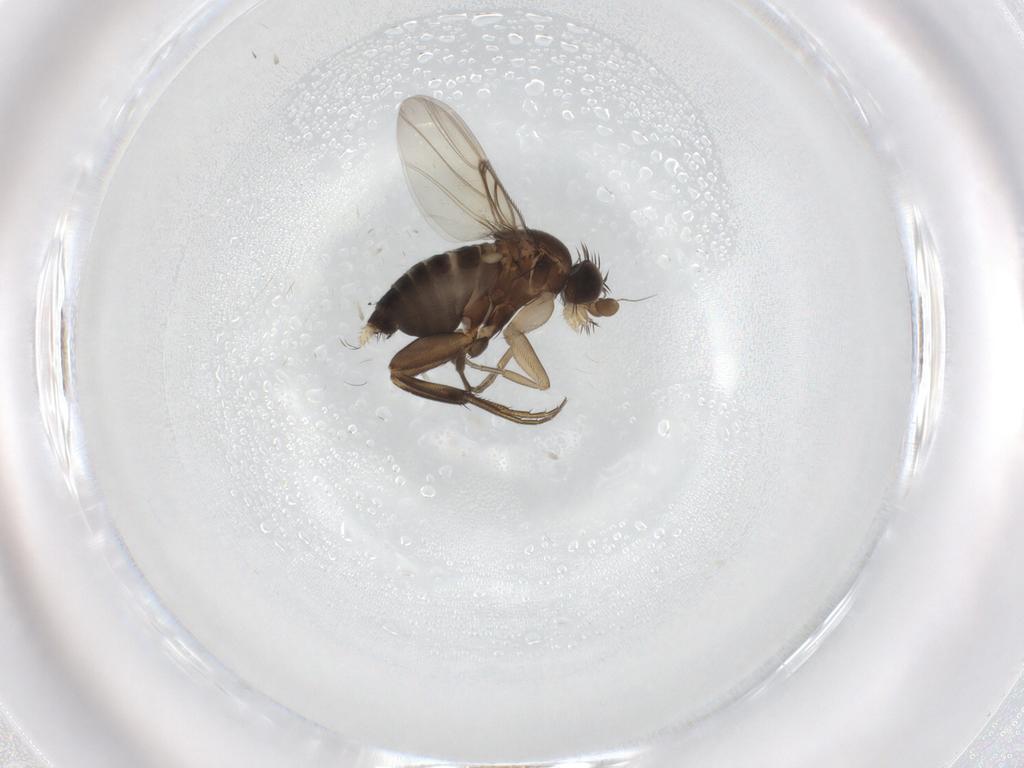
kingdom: Animalia
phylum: Arthropoda
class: Insecta
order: Diptera
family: Phoridae
